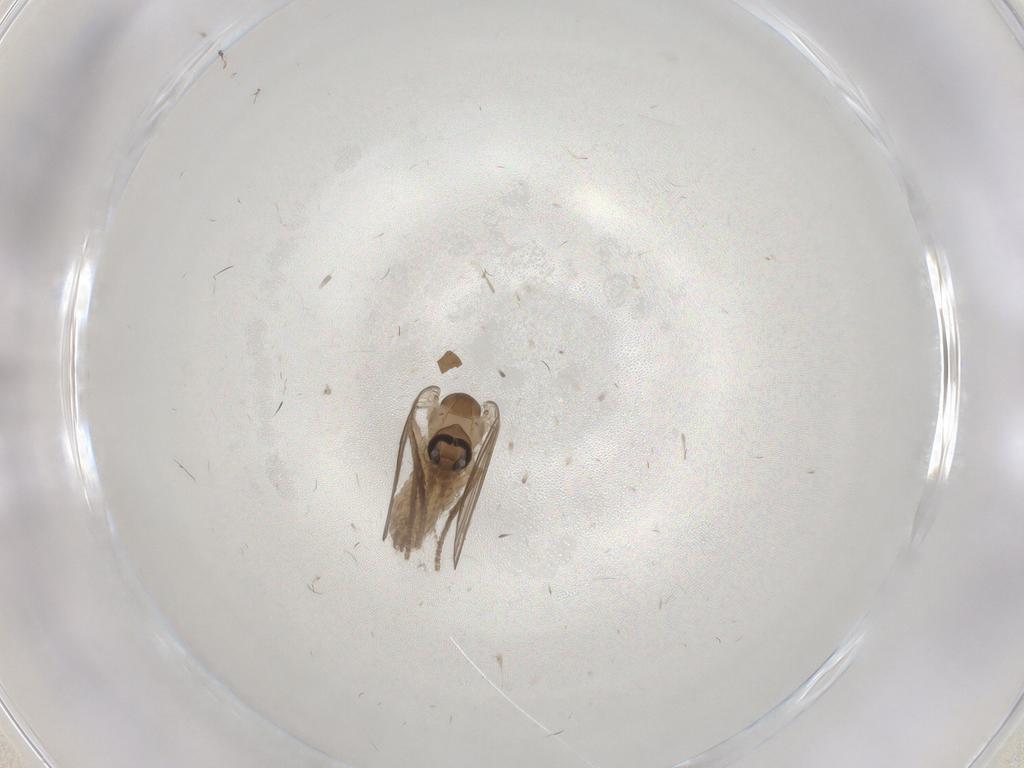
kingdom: Animalia
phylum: Arthropoda
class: Insecta
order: Diptera
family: Psychodidae
